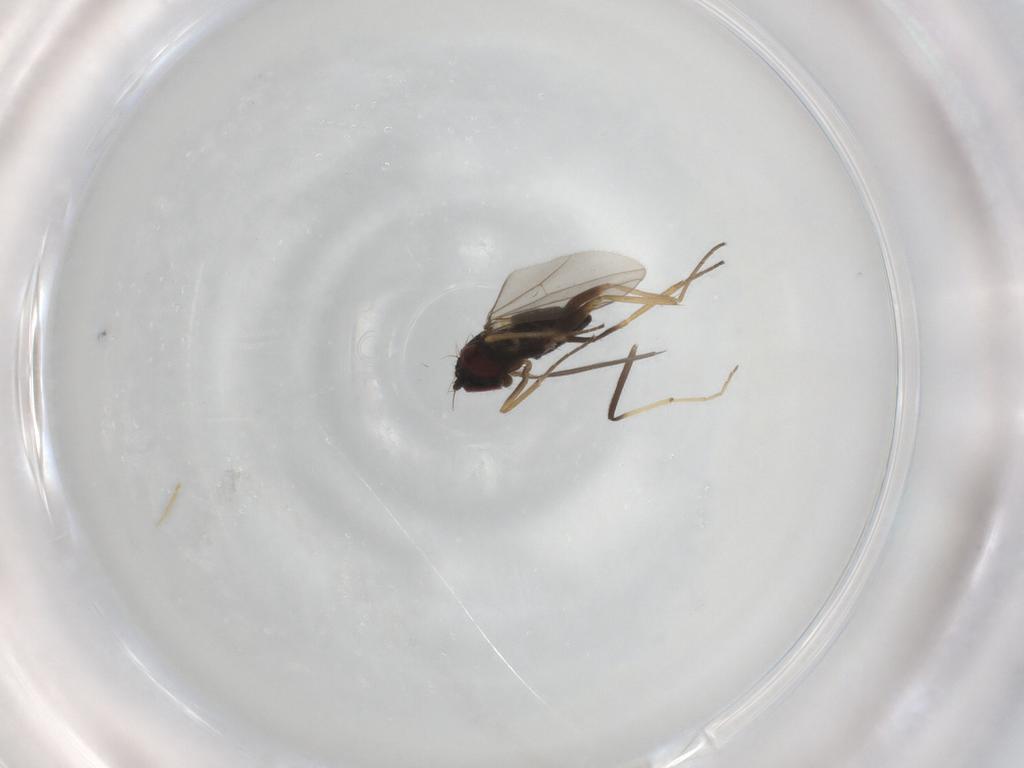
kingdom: Animalia
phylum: Arthropoda
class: Insecta
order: Diptera
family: Chironomidae
